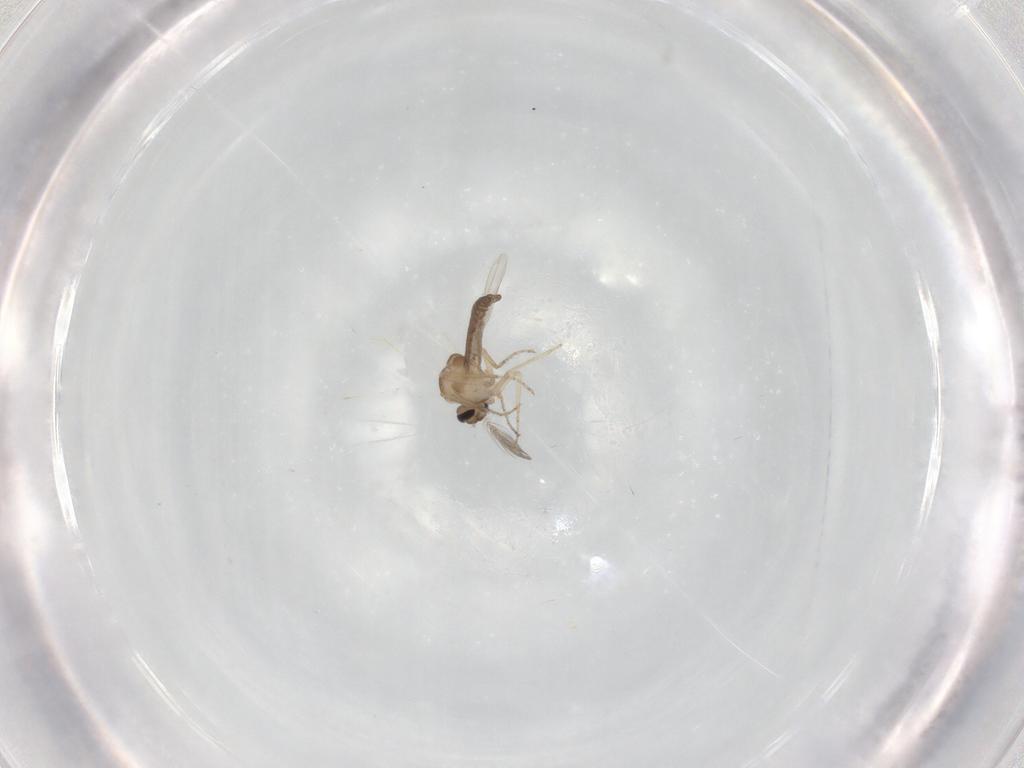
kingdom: Animalia
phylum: Arthropoda
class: Insecta
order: Diptera
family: Ceratopogonidae
